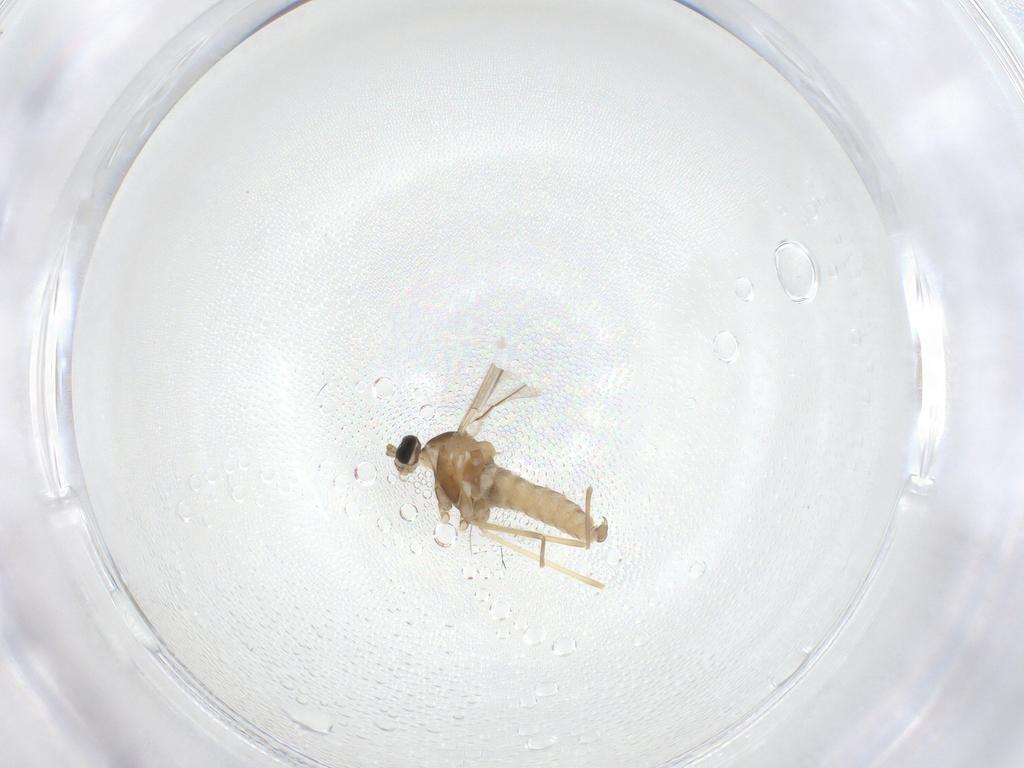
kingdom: Animalia
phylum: Arthropoda
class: Insecta
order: Diptera
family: Cecidomyiidae
